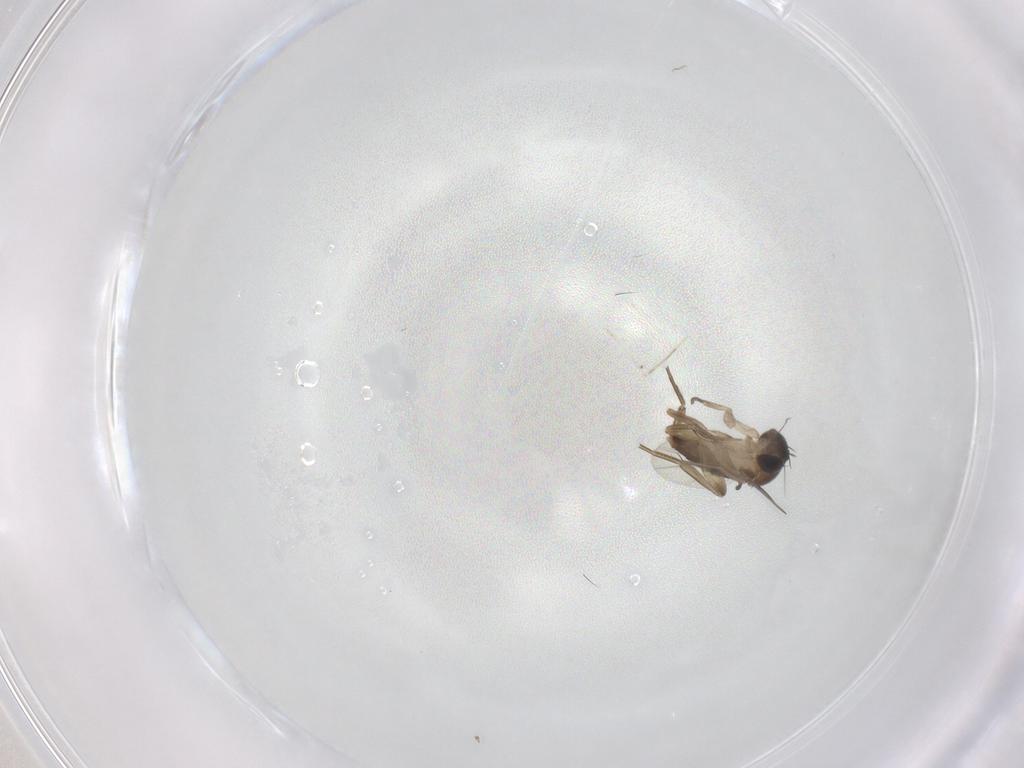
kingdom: Animalia
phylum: Arthropoda
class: Insecta
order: Diptera
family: Phoridae
